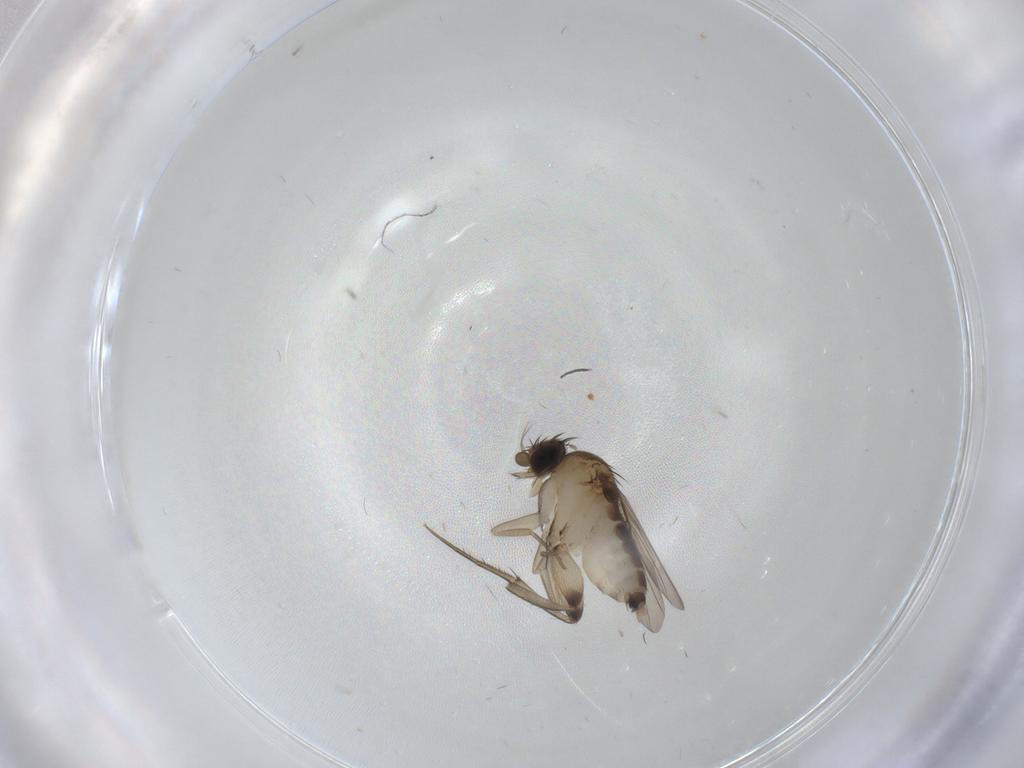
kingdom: Animalia
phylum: Arthropoda
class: Insecta
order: Diptera
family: Phoridae
